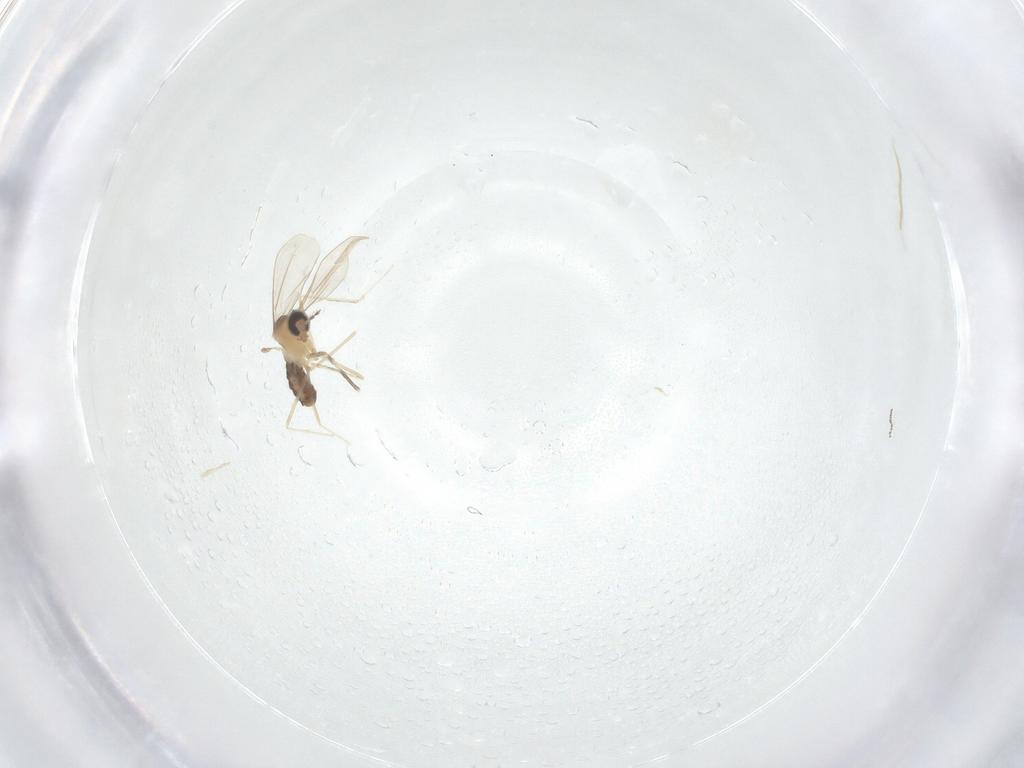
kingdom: Animalia
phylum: Arthropoda
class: Insecta
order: Diptera
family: Cecidomyiidae
